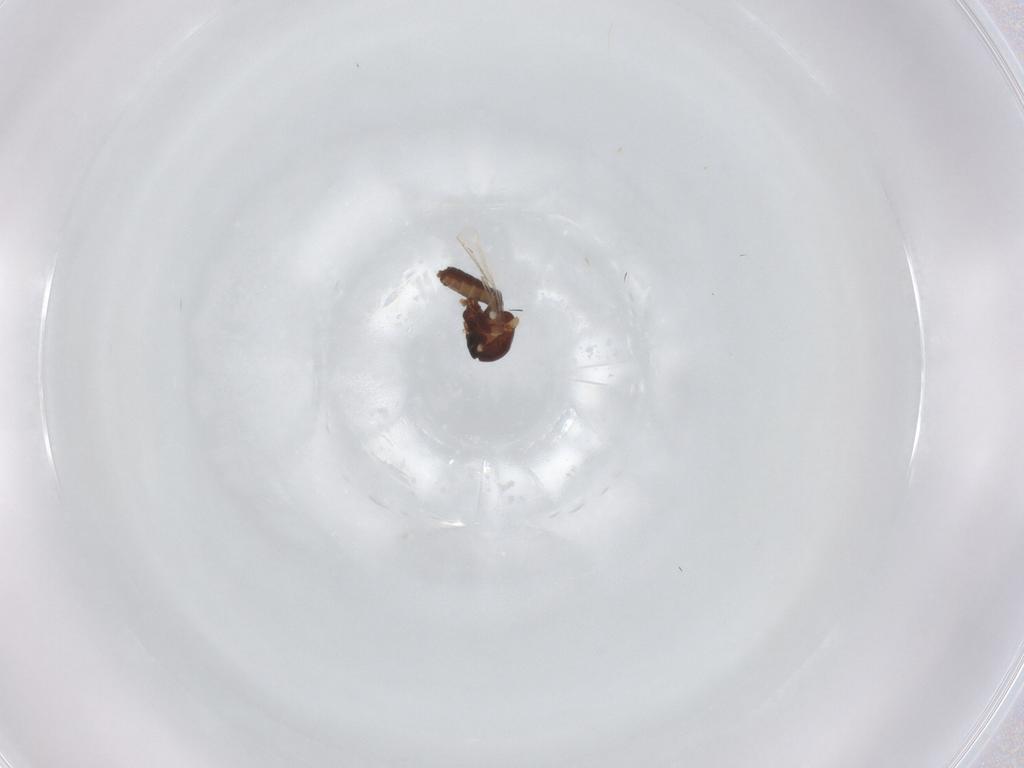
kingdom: Animalia
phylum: Arthropoda
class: Insecta
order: Diptera
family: Ceratopogonidae
